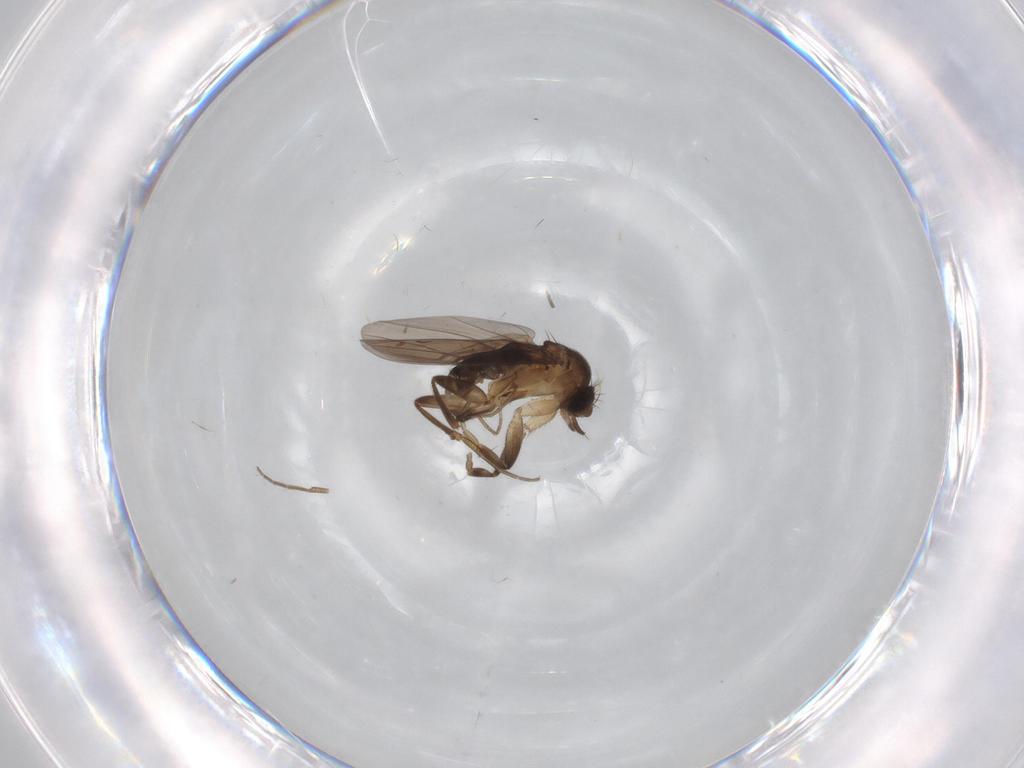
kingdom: Animalia
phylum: Arthropoda
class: Insecta
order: Diptera
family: Phoridae
